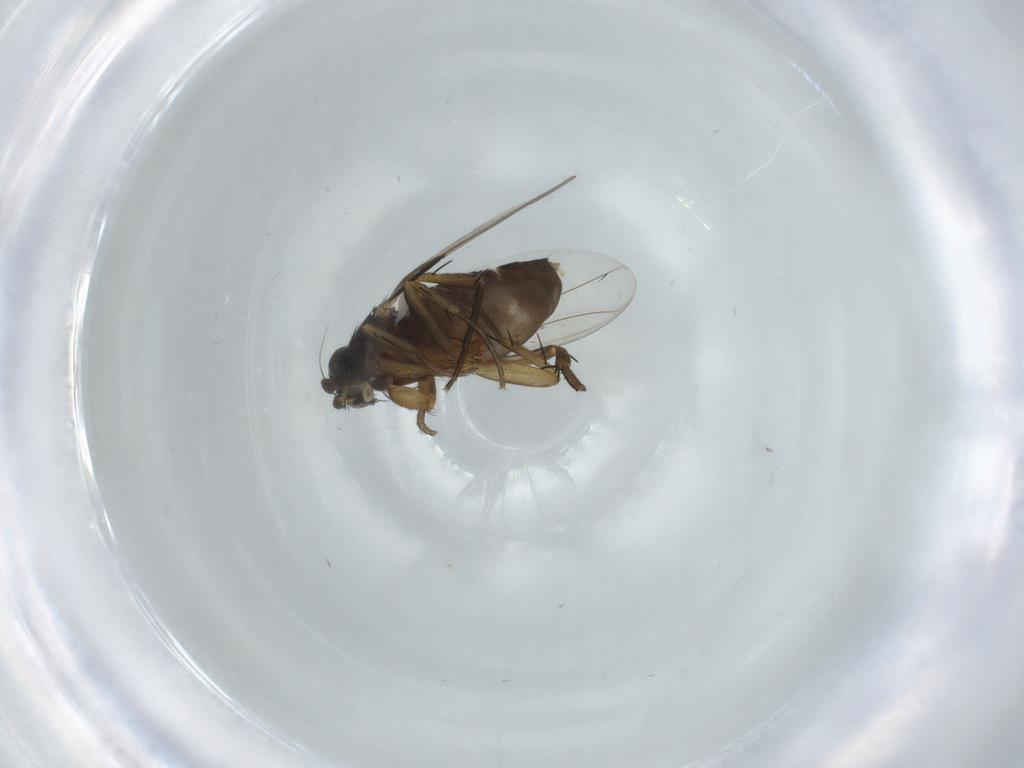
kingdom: Animalia
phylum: Arthropoda
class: Insecta
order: Diptera
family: Phoridae
